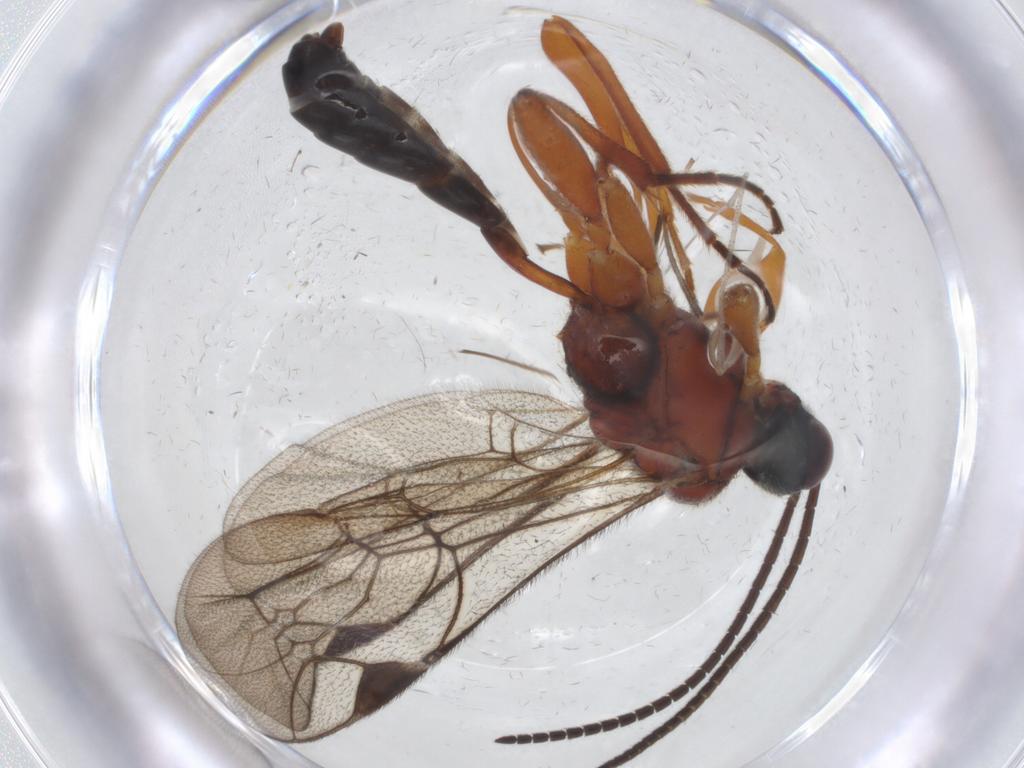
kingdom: Animalia
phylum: Arthropoda
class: Insecta
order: Hymenoptera
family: Ichneumonidae
